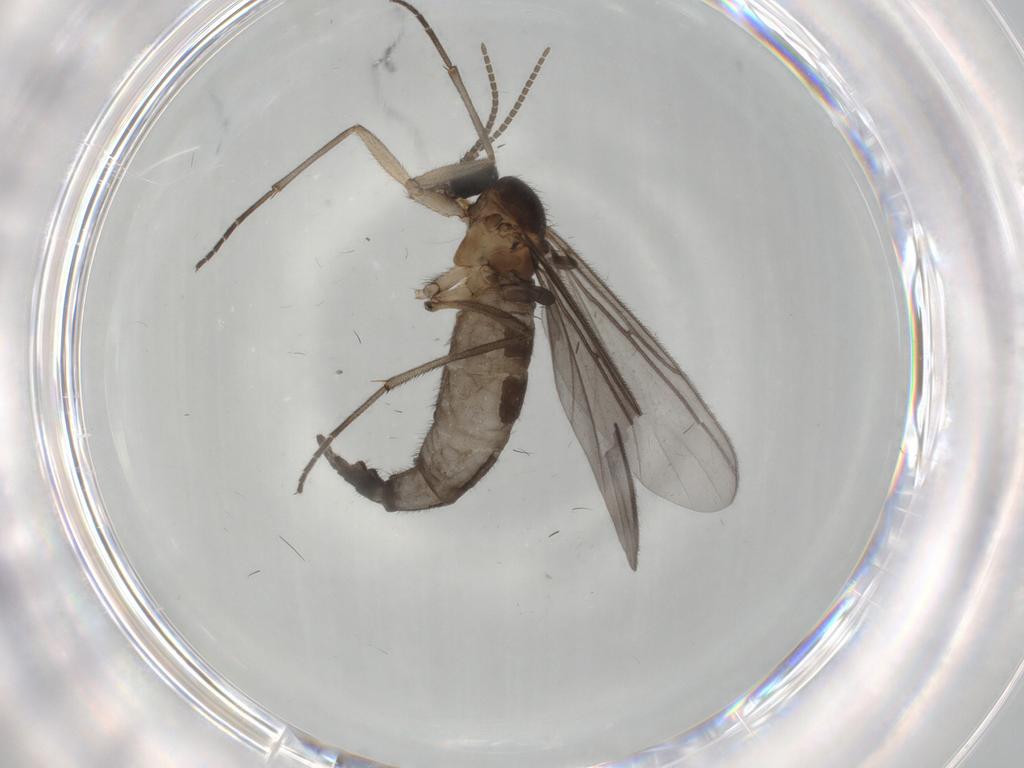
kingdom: Animalia
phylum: Arthropoda
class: Insecta
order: Diptera
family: Sciaridae
